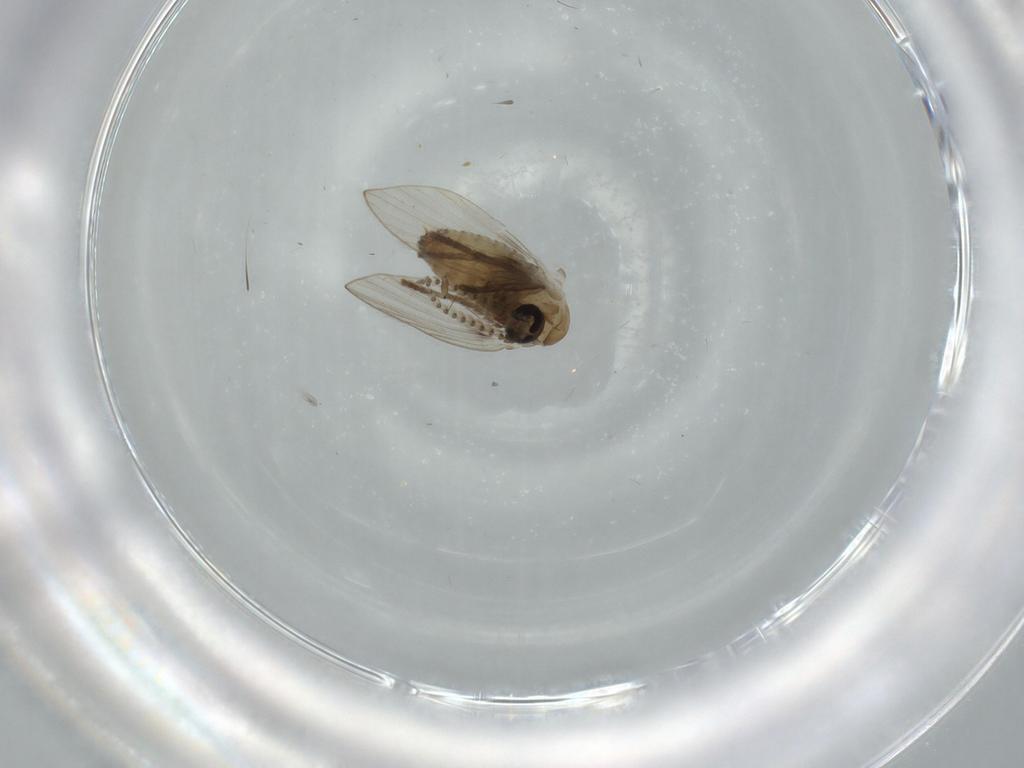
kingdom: Animalia
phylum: Arthropoda
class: Insecta
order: Diptera
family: Psychodidae
